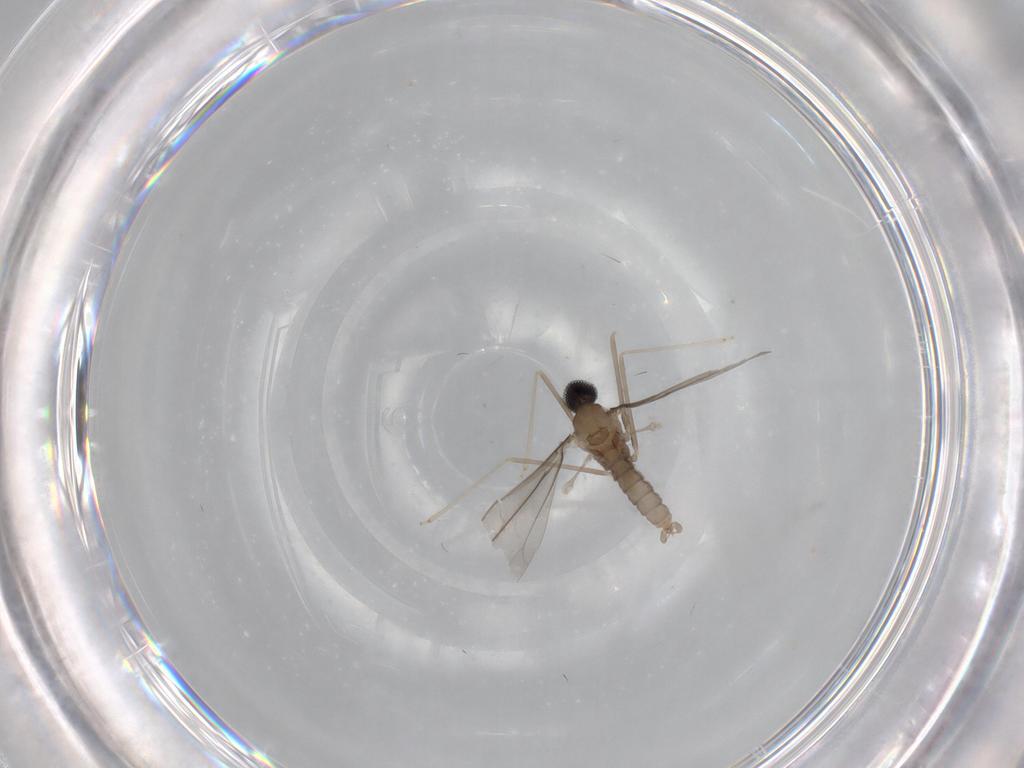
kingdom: Animalia
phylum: Arthropoda
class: Insecta
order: Diptera
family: Cecidomyiidae
